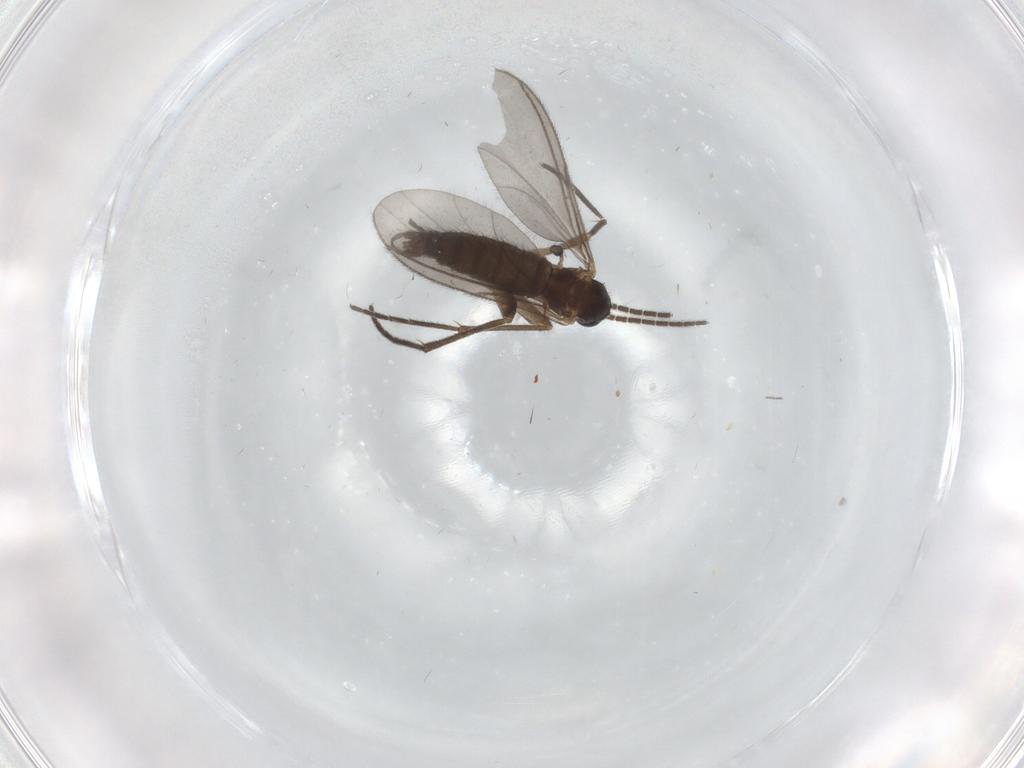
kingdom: Animalia
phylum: Arthropoda
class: Insecta
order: Diptera
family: Sciaridae
